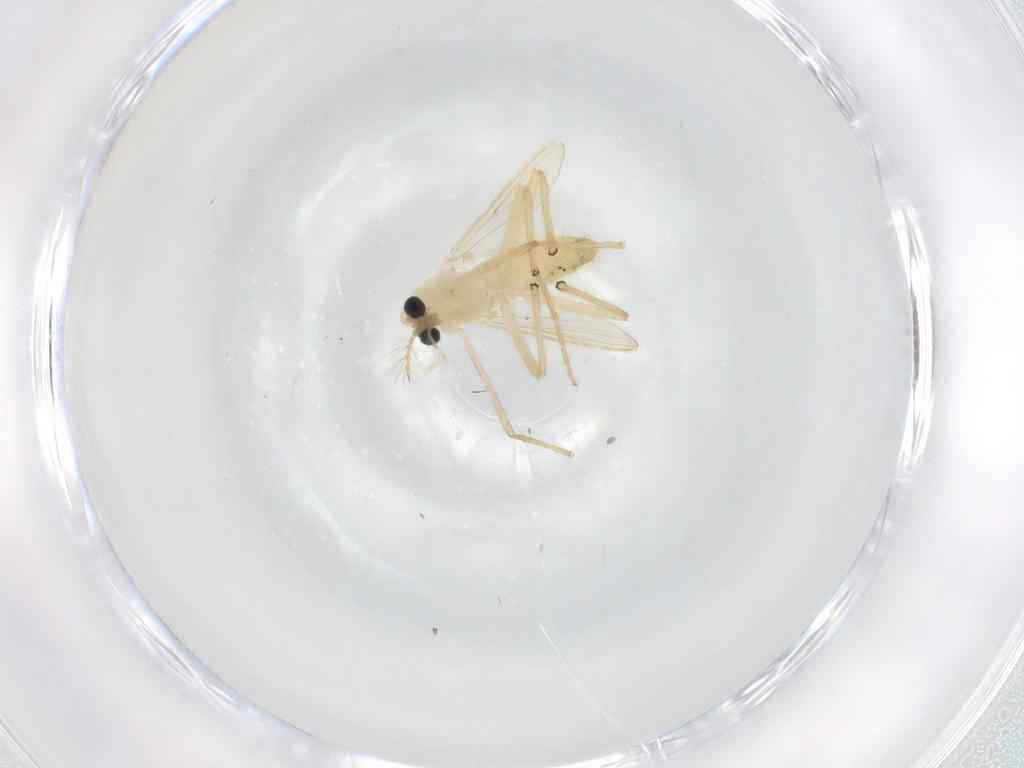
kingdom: Animalia
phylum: Arthropoda
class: Insecta
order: Diptera
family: Chironomidae
